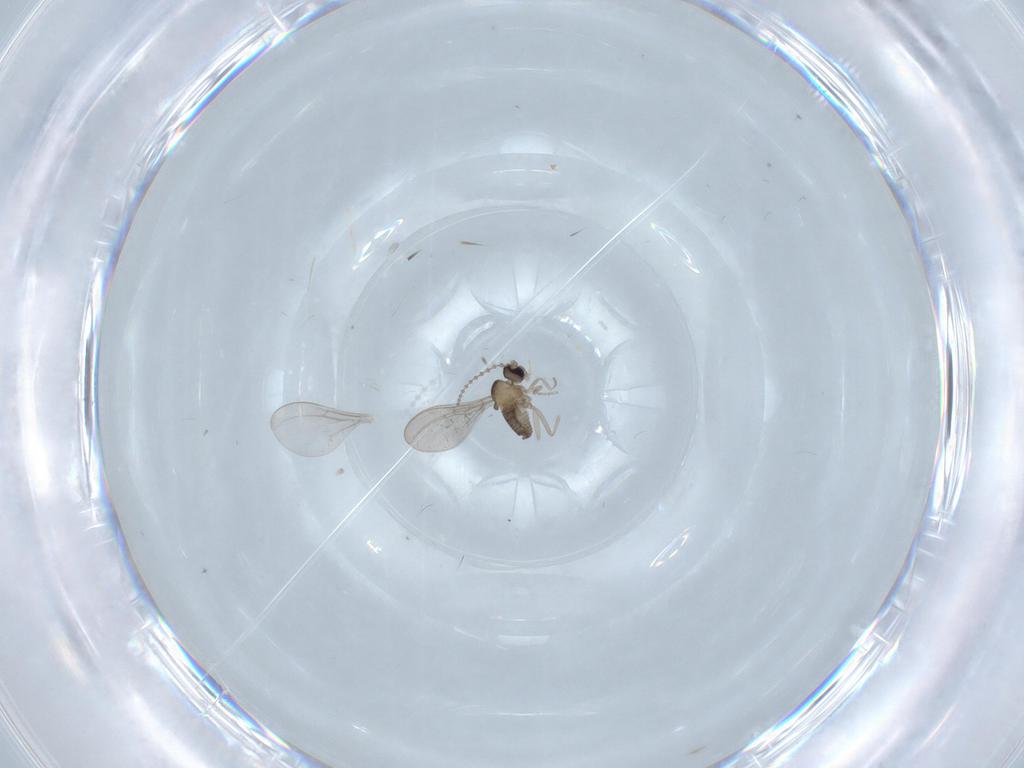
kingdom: Animalia
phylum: Arthropoda
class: Insecta
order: Diptera
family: Cecidomyiidae
